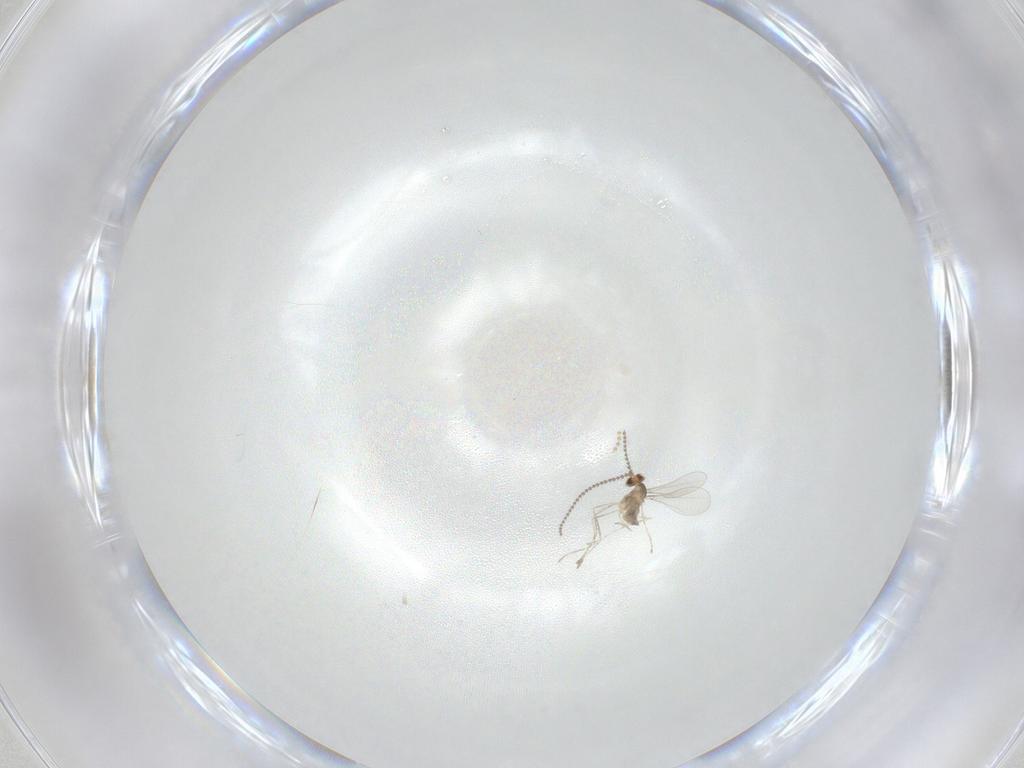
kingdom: Animalia
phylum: Arthropoda
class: Insecta
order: Diptera
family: Cecidomyiidae
